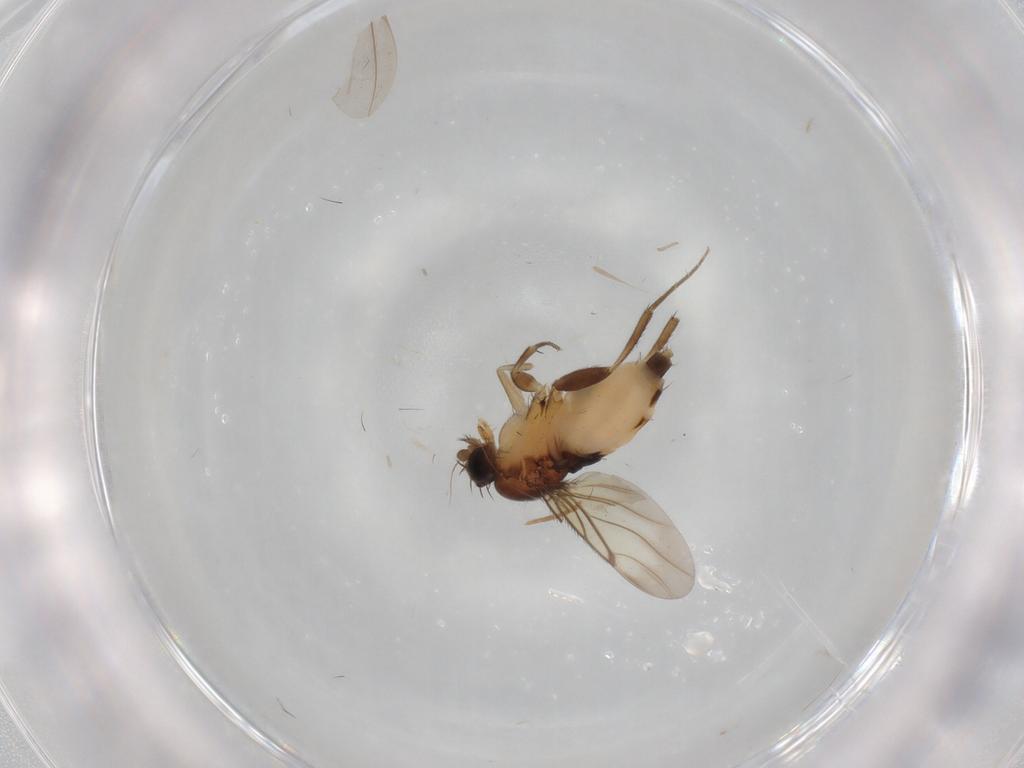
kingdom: Animalia
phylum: Arthropoda
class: Insecta
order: Diptera
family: Phoridae
